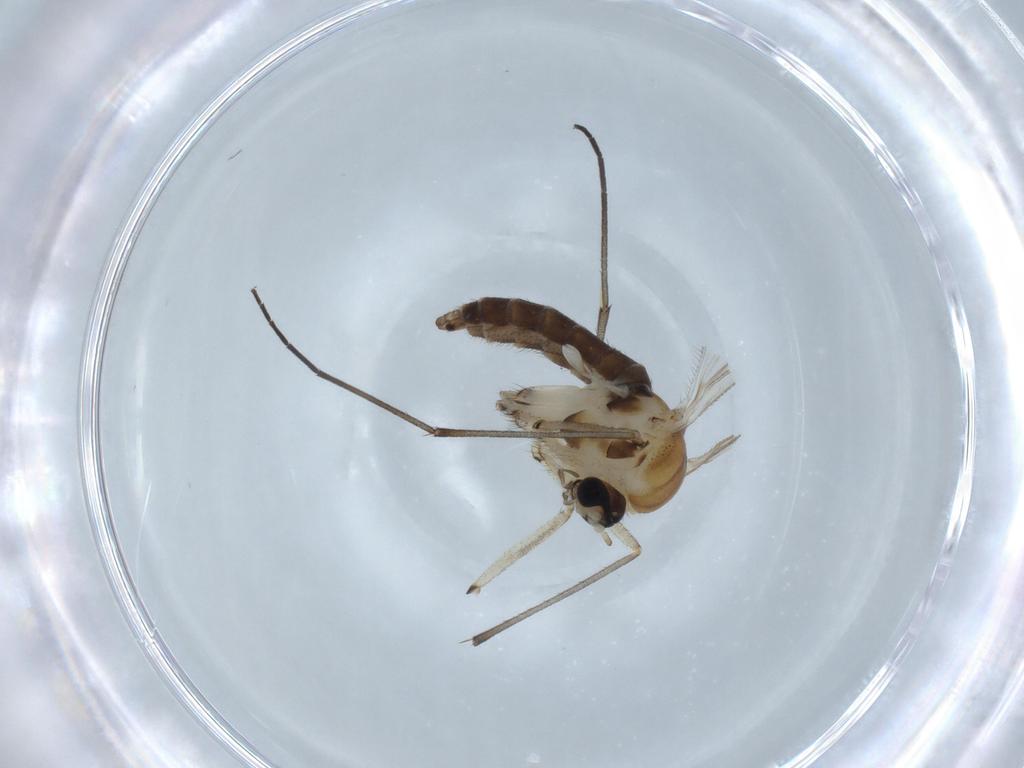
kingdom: Animalia
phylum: Arthropoda
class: Insecta
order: Diptera
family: Sciaridae
